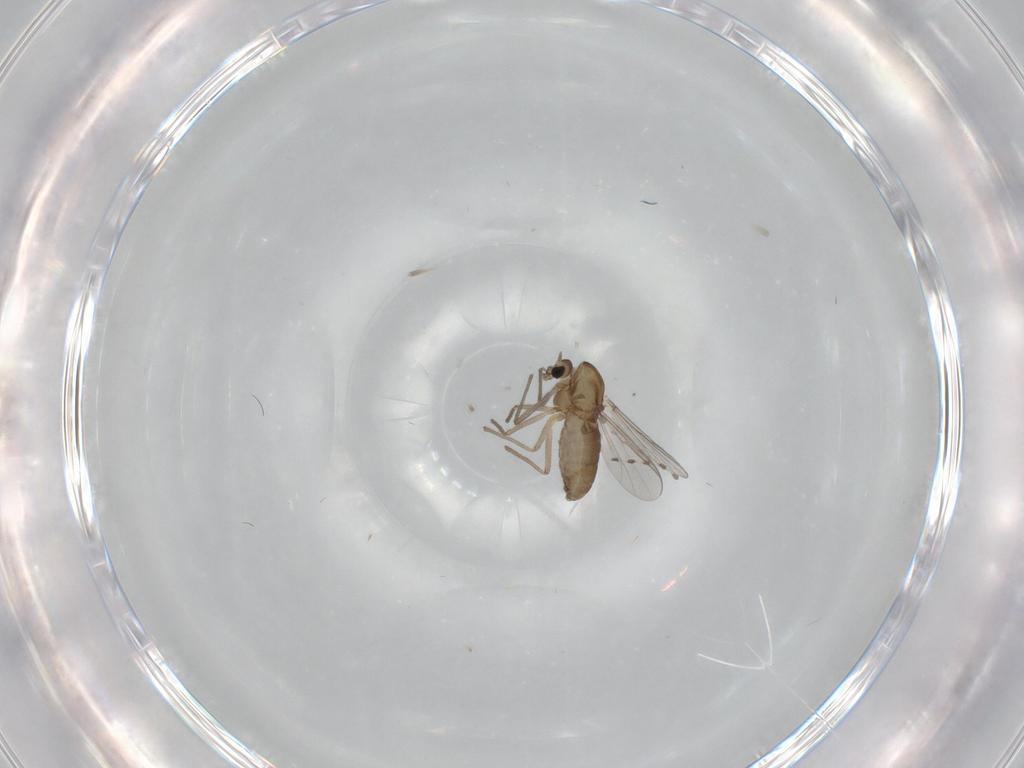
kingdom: Animalia
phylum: Arthropoda
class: Insecta
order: Diptera
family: Chironomidae
